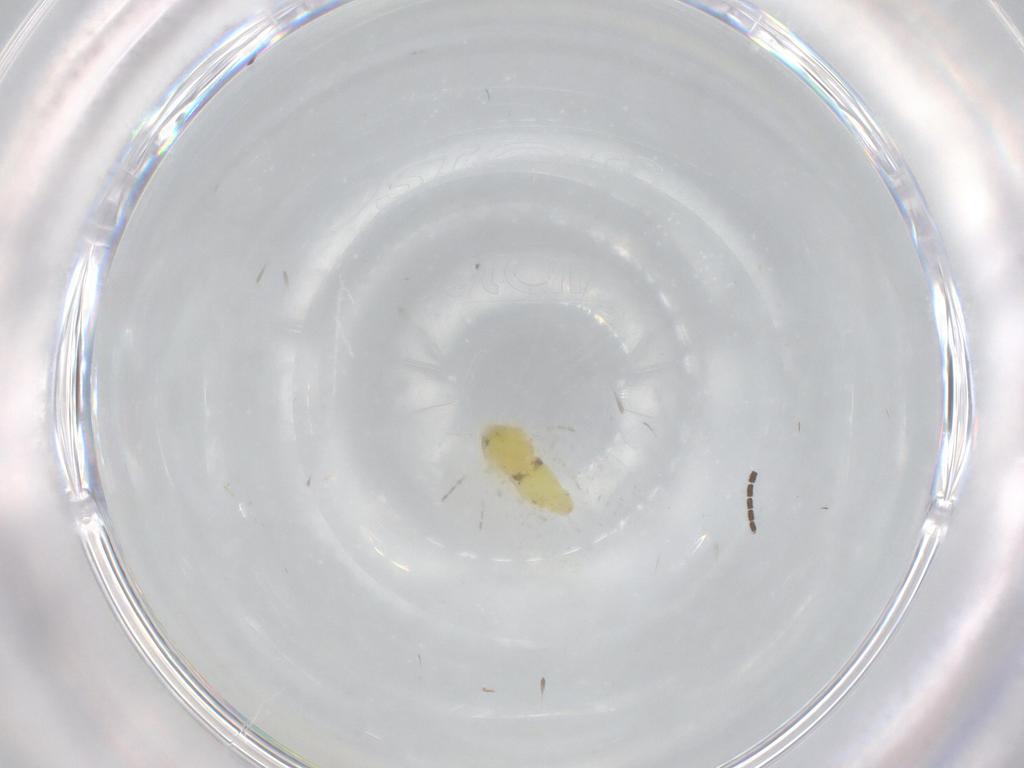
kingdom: Animalia
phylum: Arthropoda
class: Insecta
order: Hemiptera
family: Aleyrodidae
